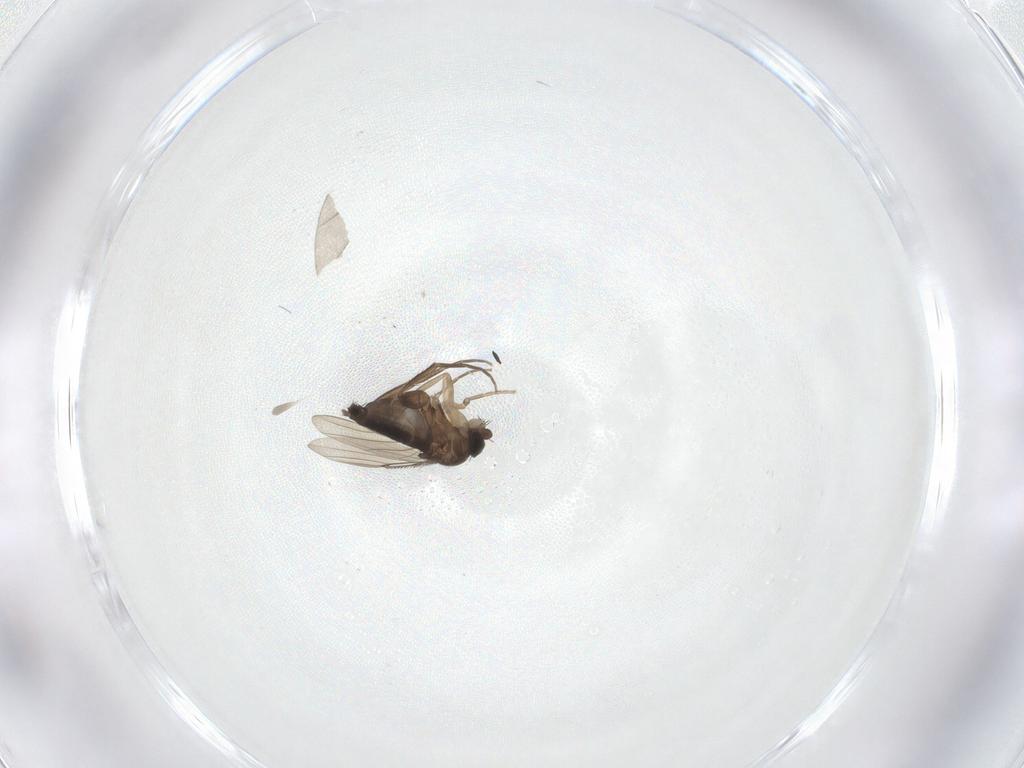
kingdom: Animalia
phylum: Arthropoda
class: Insecta
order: Diptera
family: Phoridae
